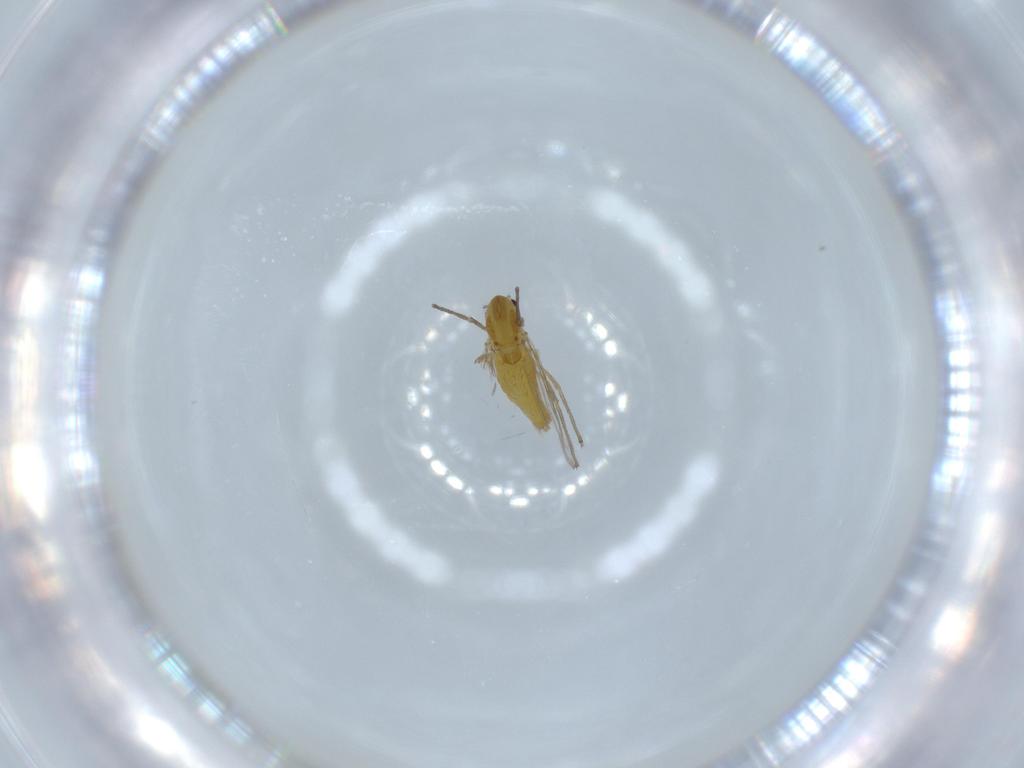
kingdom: Animalia
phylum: Arthropoda
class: Insecta
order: Diptera
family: Chironomidae
